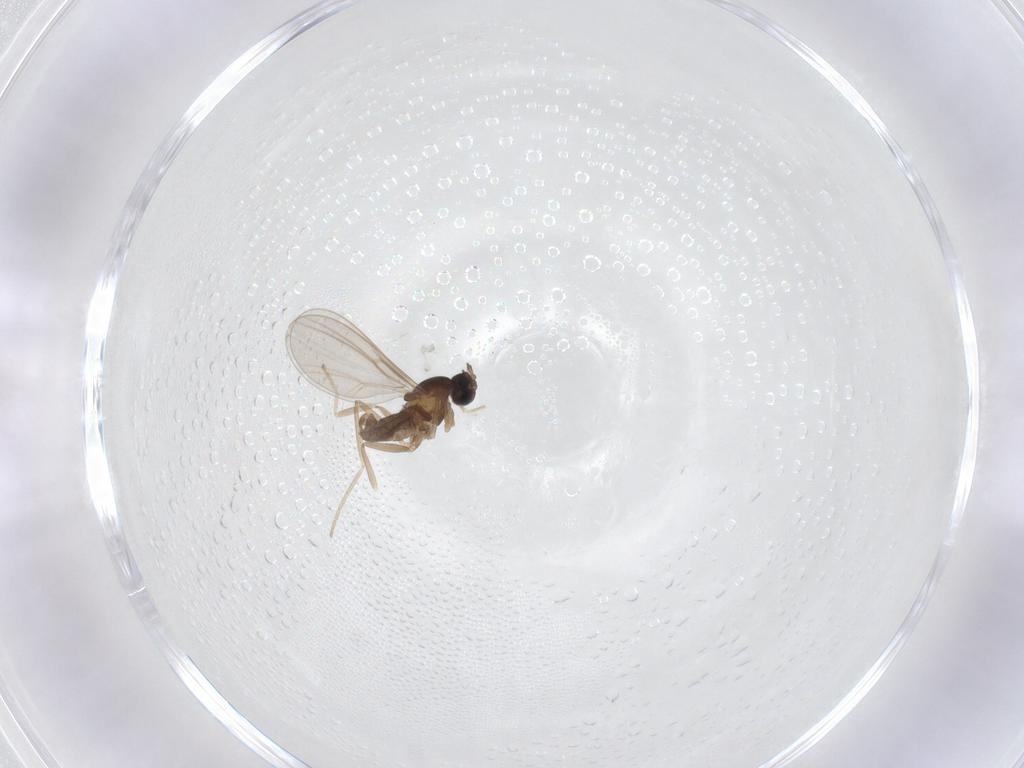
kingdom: Animalia
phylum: Arthropoda
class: Insecta
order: Diptera
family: Cecidomyiidae
